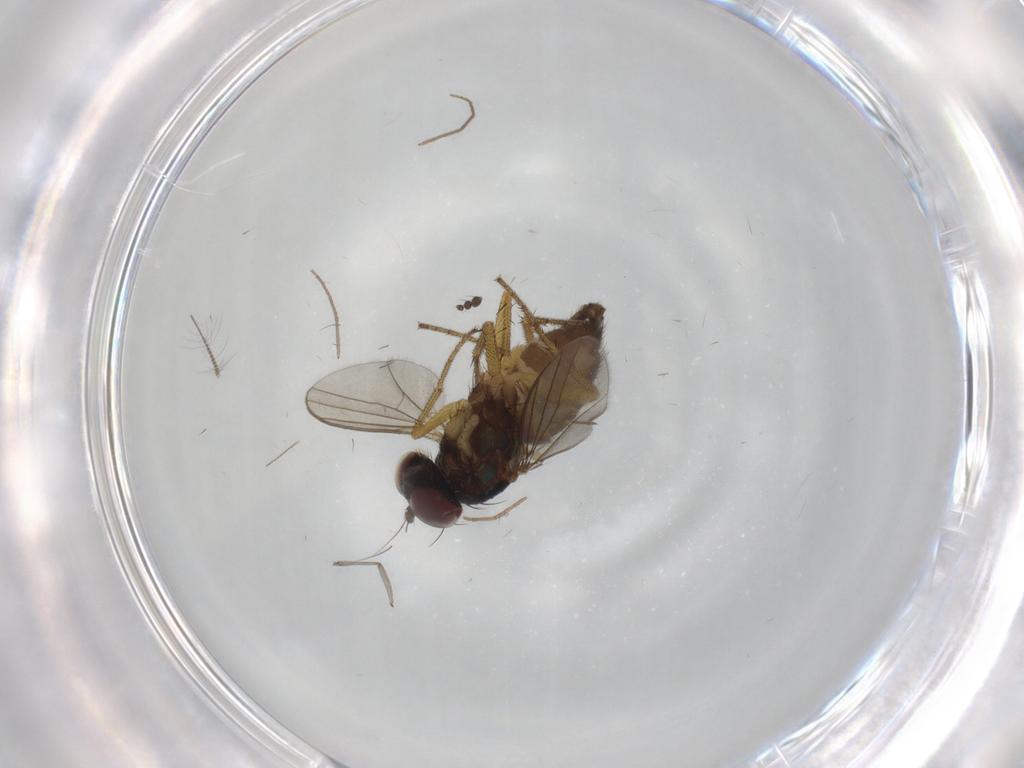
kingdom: Animalia
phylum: Arthropoda
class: Insecta
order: Diptera
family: Sciaridae
